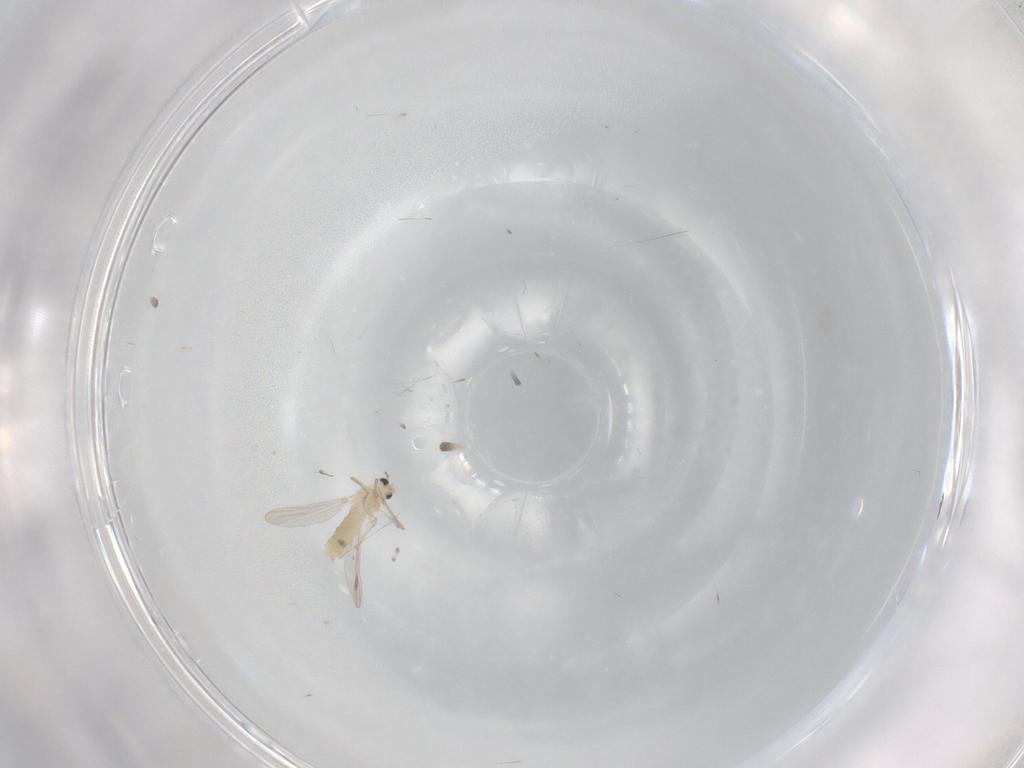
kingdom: Animalia
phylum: Arthropoda
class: Insecta
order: Diptera
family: Chironomidae
